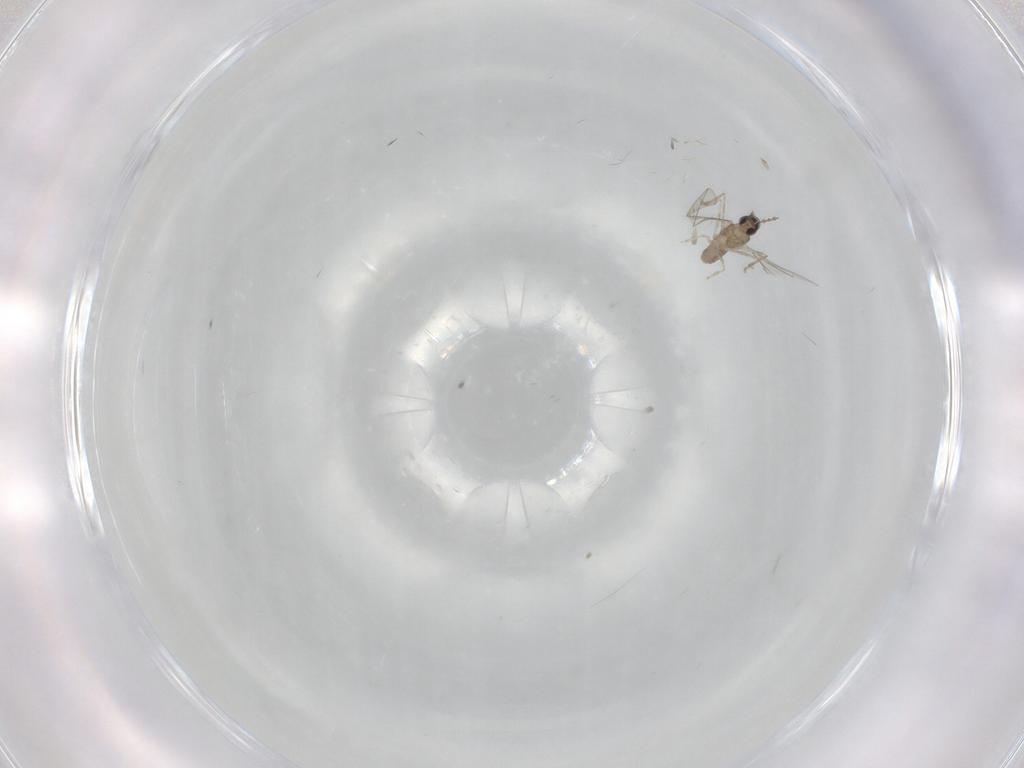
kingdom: Animalia
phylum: Arthropoda
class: Insecta
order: Diptera
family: Cecidomyiidae
